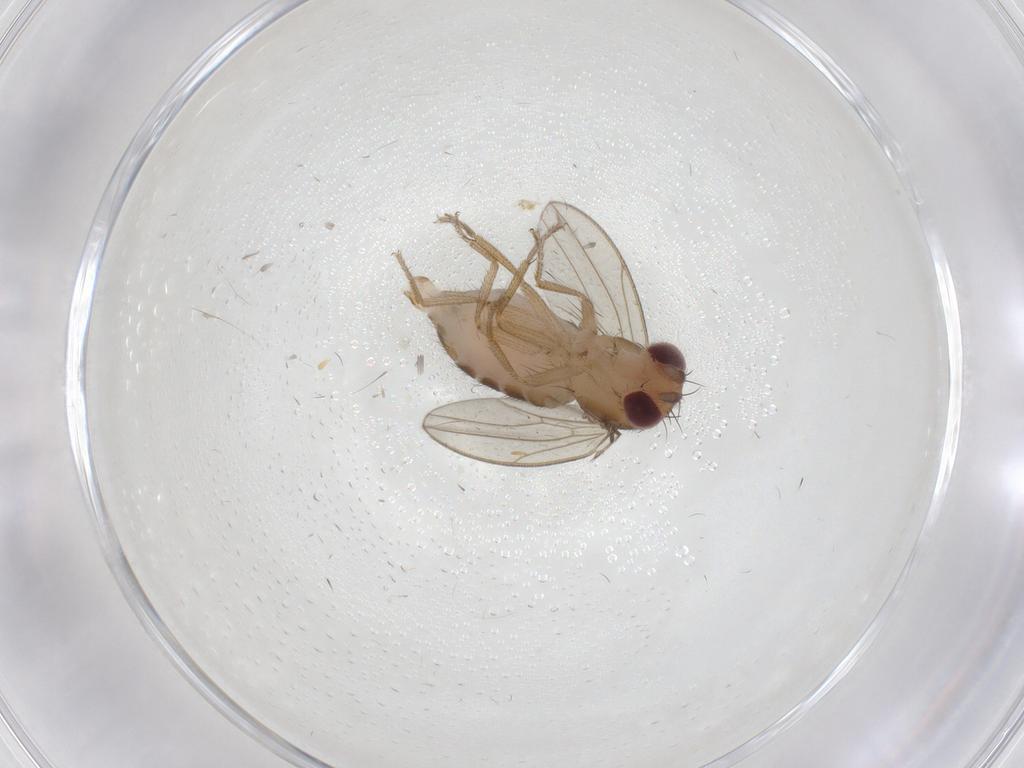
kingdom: Animalia
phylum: Arthropoda
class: Insecta
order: Diptera
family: Drosophilidae
